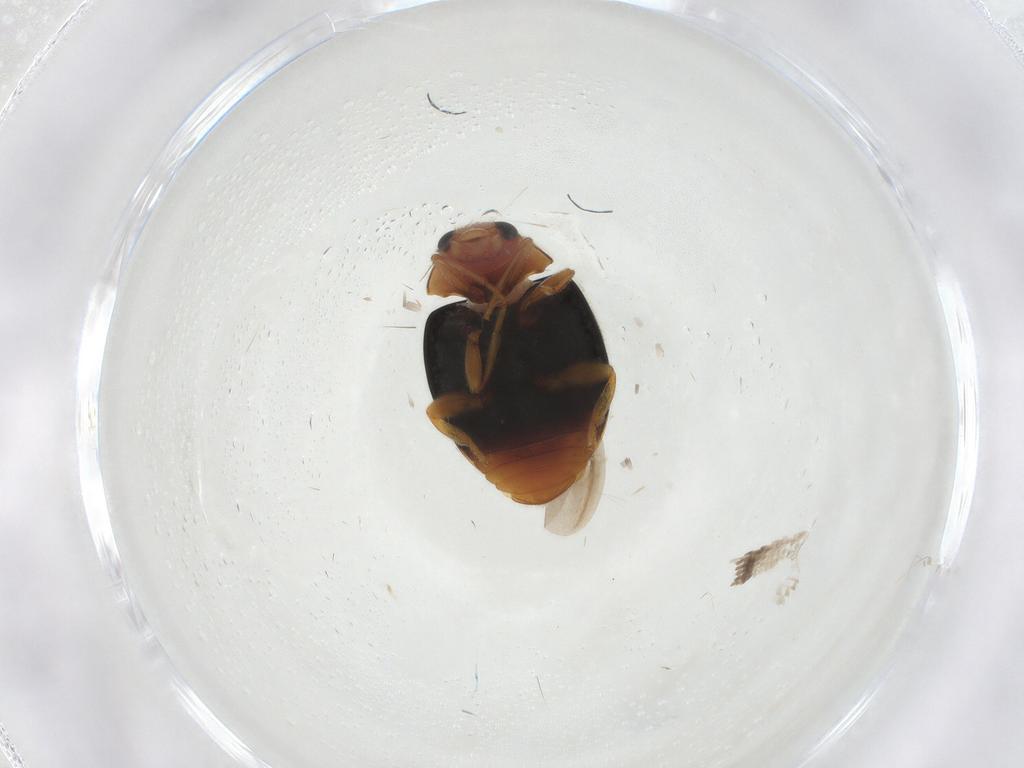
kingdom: Animalia
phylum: Arthropoda
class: Insecta
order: Coleoptera
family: Coccinellidae
